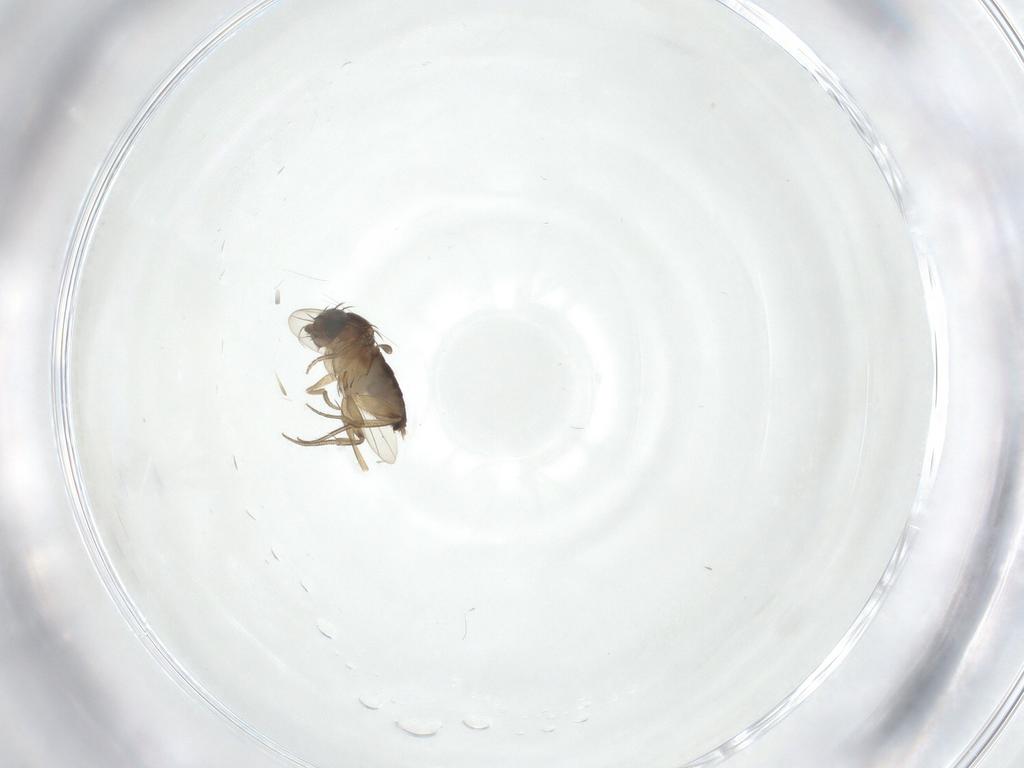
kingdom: Animalia
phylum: Arthropoda
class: Insecta
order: Diptera
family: Phoridae
